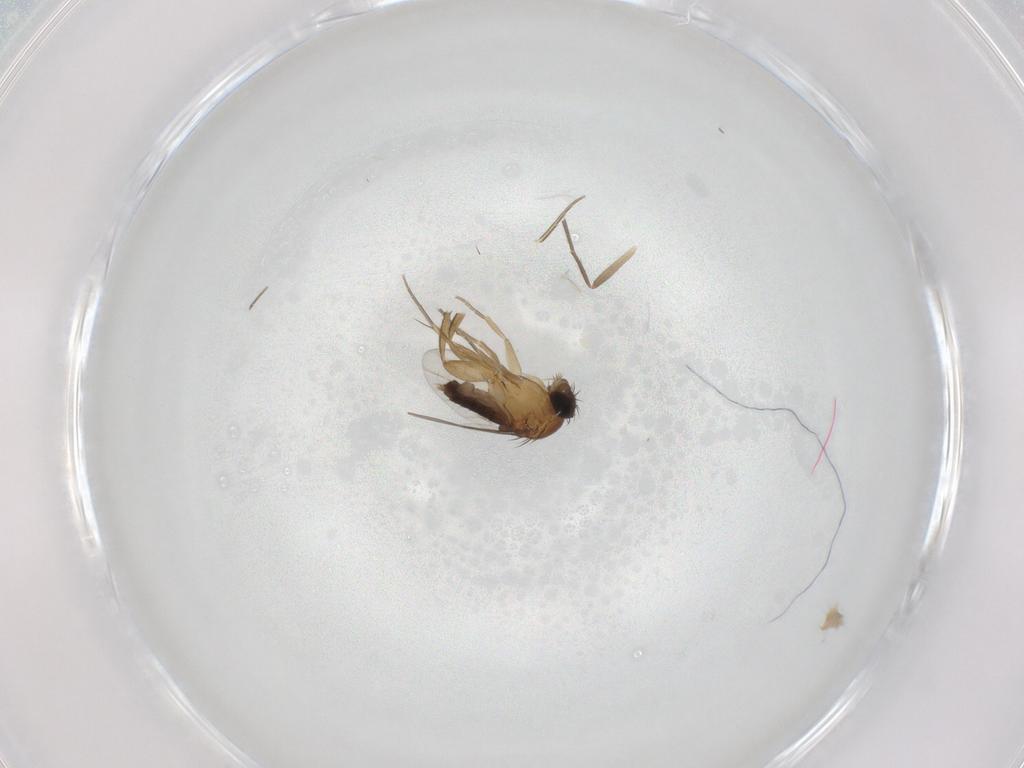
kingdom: Animalia
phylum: Arthropoda
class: Insecta
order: Diptera
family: Phoridae
